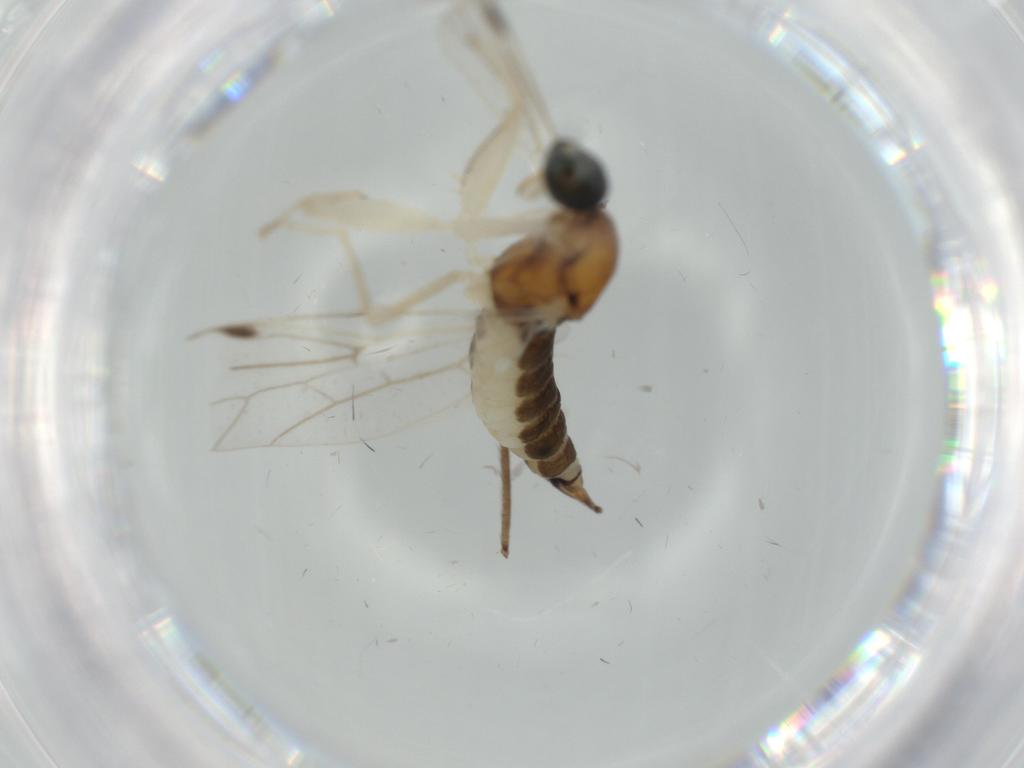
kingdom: Animalia
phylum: Arthropoda
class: Insecta
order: Diptera
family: Empididae
